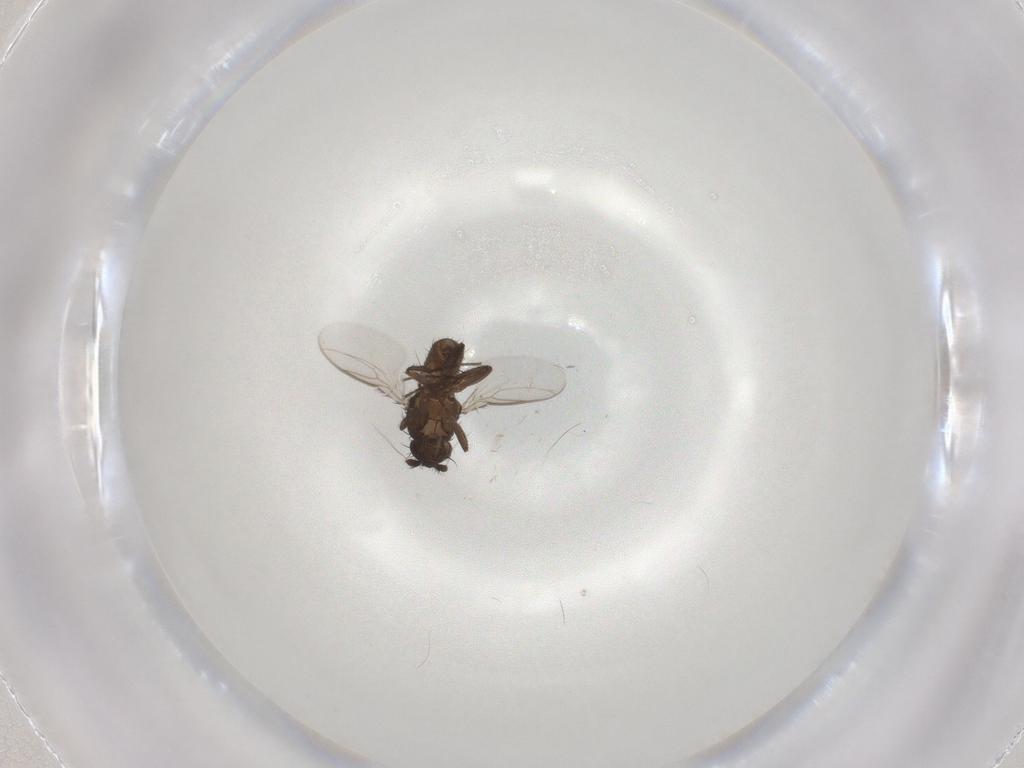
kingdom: Animalia
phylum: Arthropoda
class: Insecta
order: Diptera
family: Sphaeroceridae
